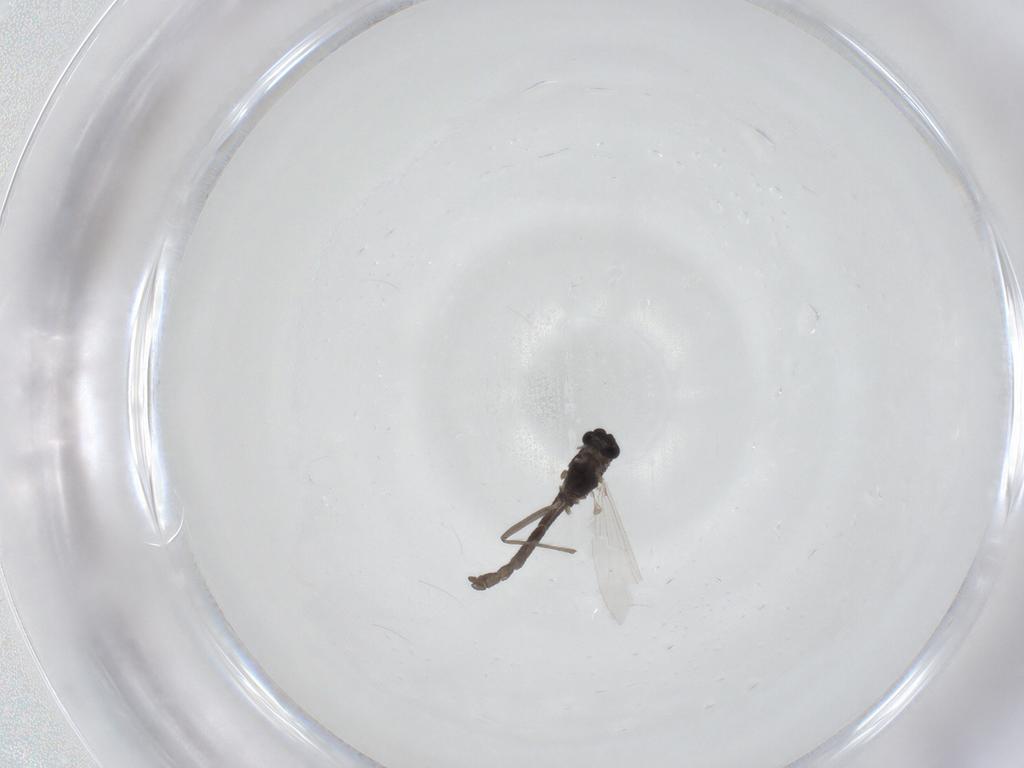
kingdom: Animalia
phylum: Arthropoda
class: Insecta
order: Diptera
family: Chironomidae
